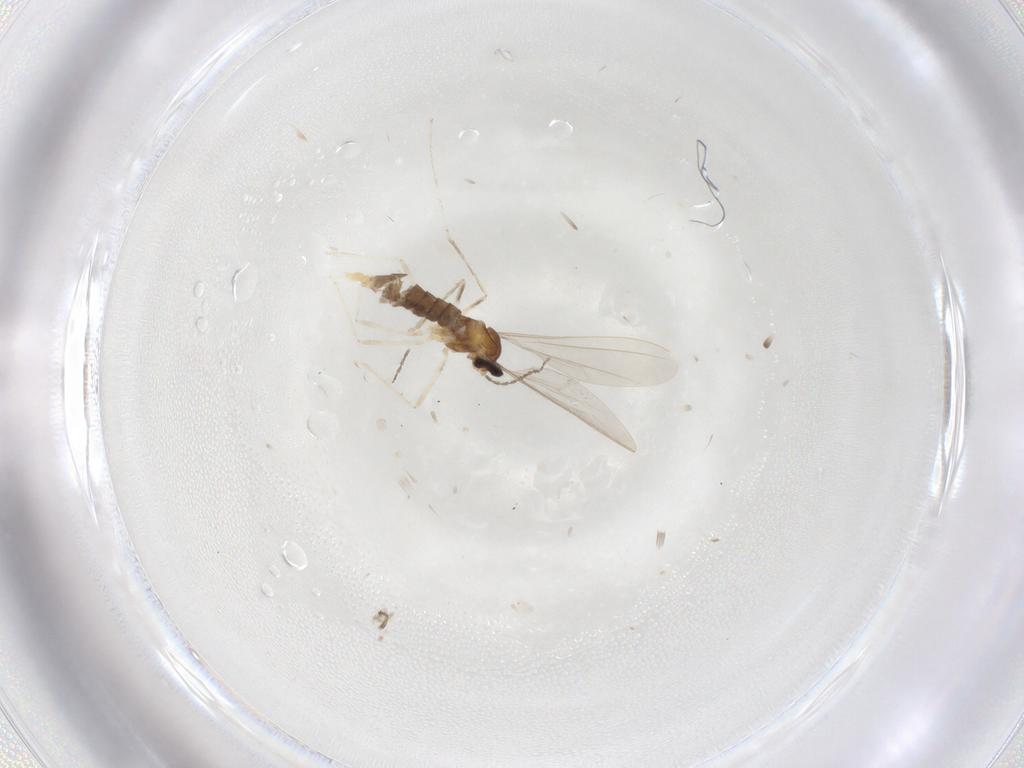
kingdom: Animalia
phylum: Arthropoda
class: Insecta
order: Diptera
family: Cecidomyiidae
